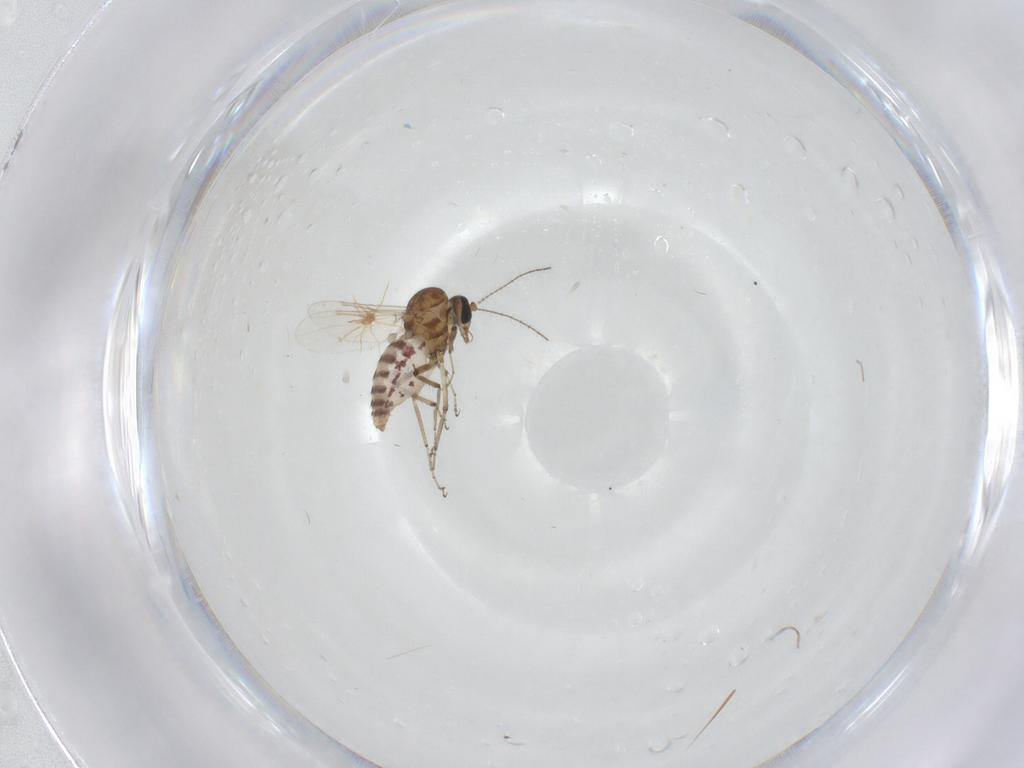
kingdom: Animalia
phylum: Arthropoda
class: Insecta
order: Diptera
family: Ceratopogonidae
